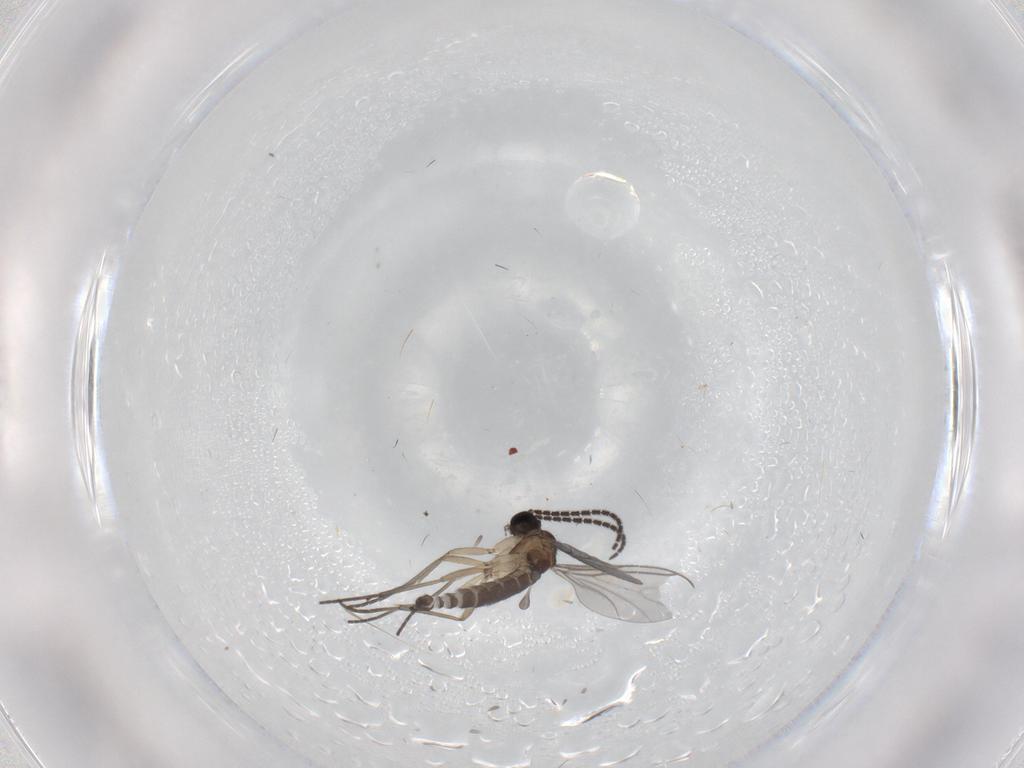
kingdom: Animalia
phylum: Arthropoda
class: Insecta
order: Diptera
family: Sciaridae
